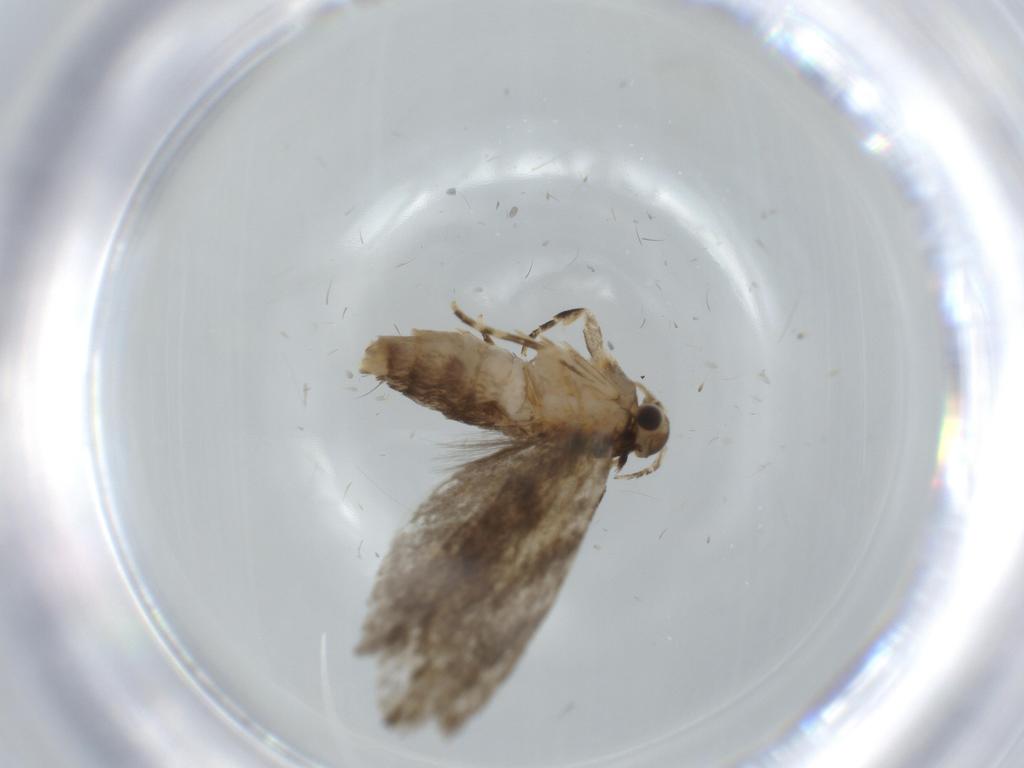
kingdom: Animalia
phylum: Arthropoda
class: Insecta
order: Lepidoptera
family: Tineidae
